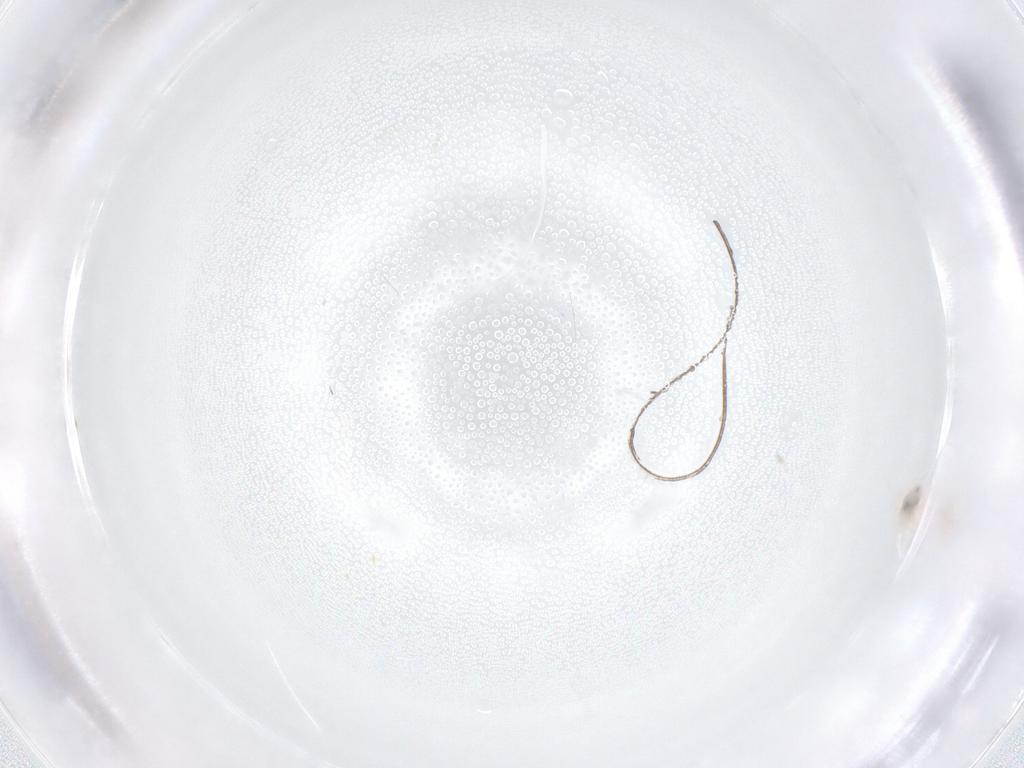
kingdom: Animalia
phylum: Arthropoda
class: Arachnida
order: Mesostigmata
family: Melicharidae
